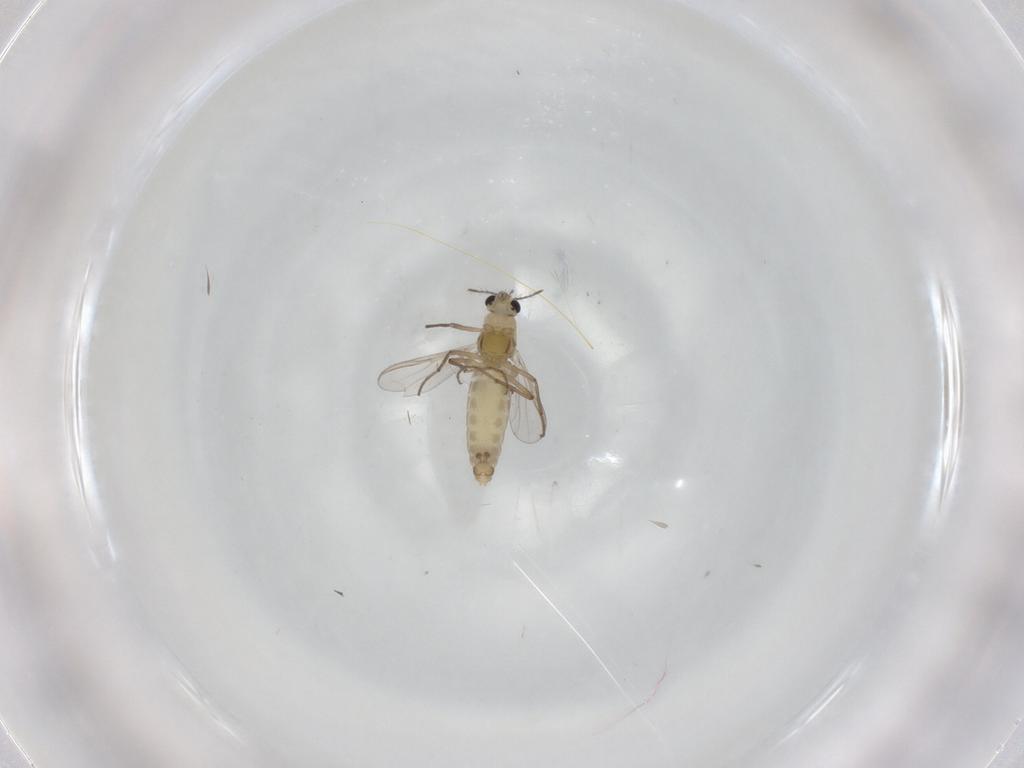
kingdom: Animalia
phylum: Arthropoda
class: Insecta
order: Diptera
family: Chironomidae
